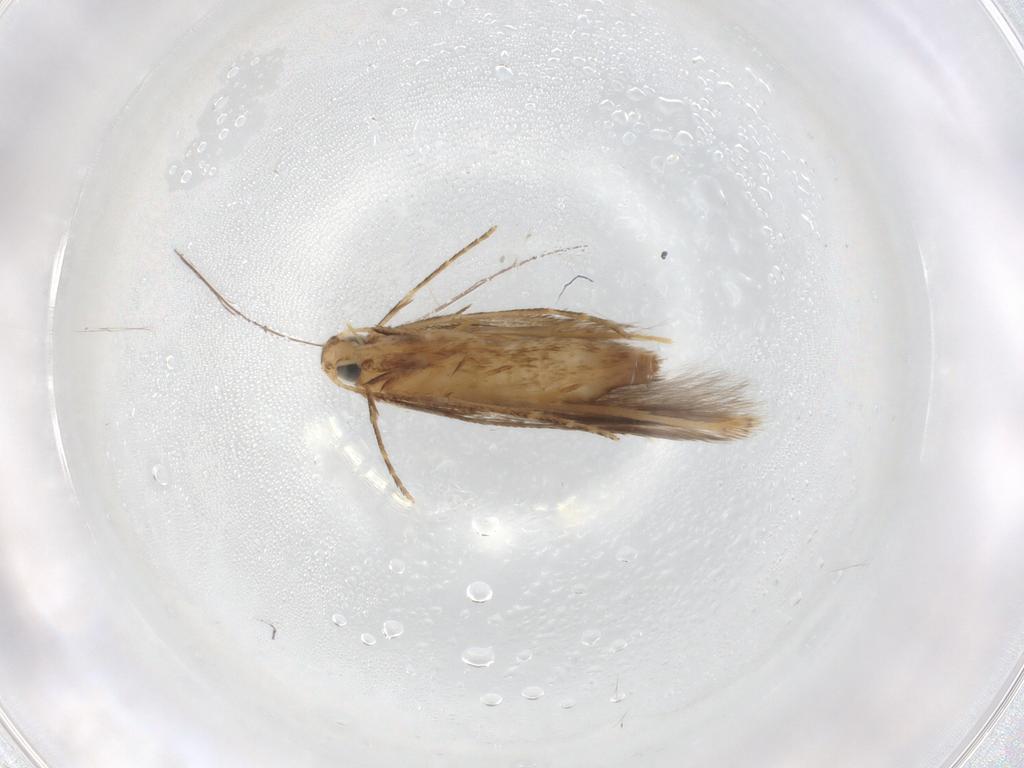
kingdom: Animalia
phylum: Arthropoda
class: Insecta
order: Lepidoptera
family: Tischeriidae
